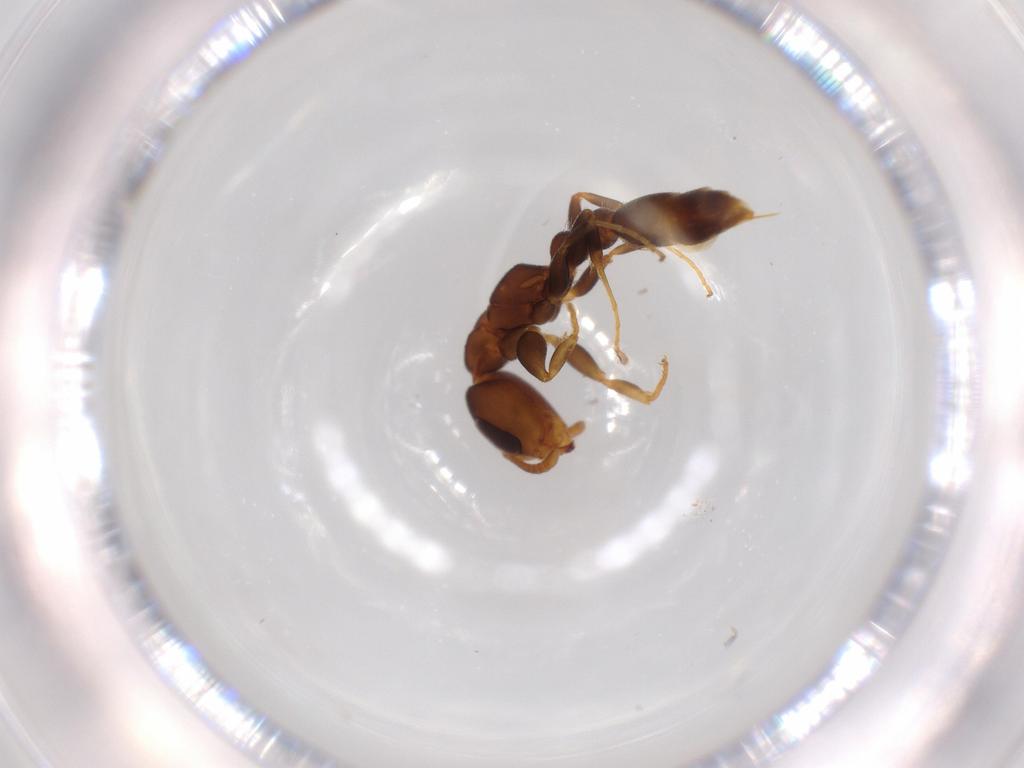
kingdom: Animalia
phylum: Arthropoda
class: Insecta
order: Hymenoptera
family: Trichogrammatidae
